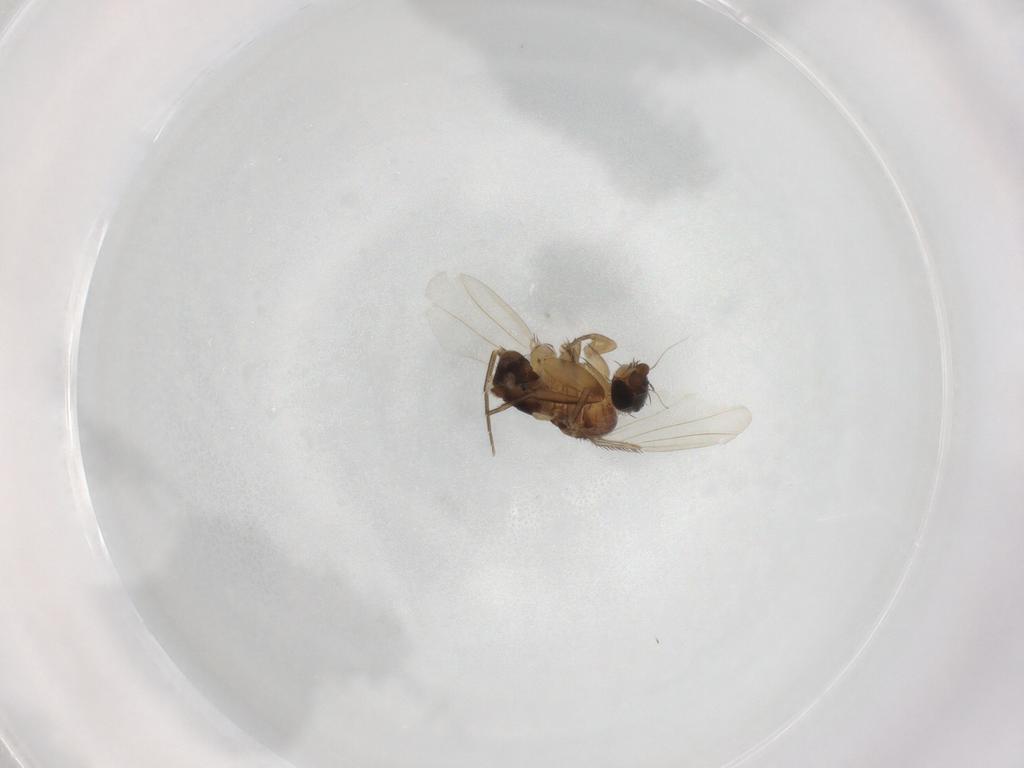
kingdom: Animalia
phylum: Arthropoda
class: Insecta
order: Diptera
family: Phoridae
